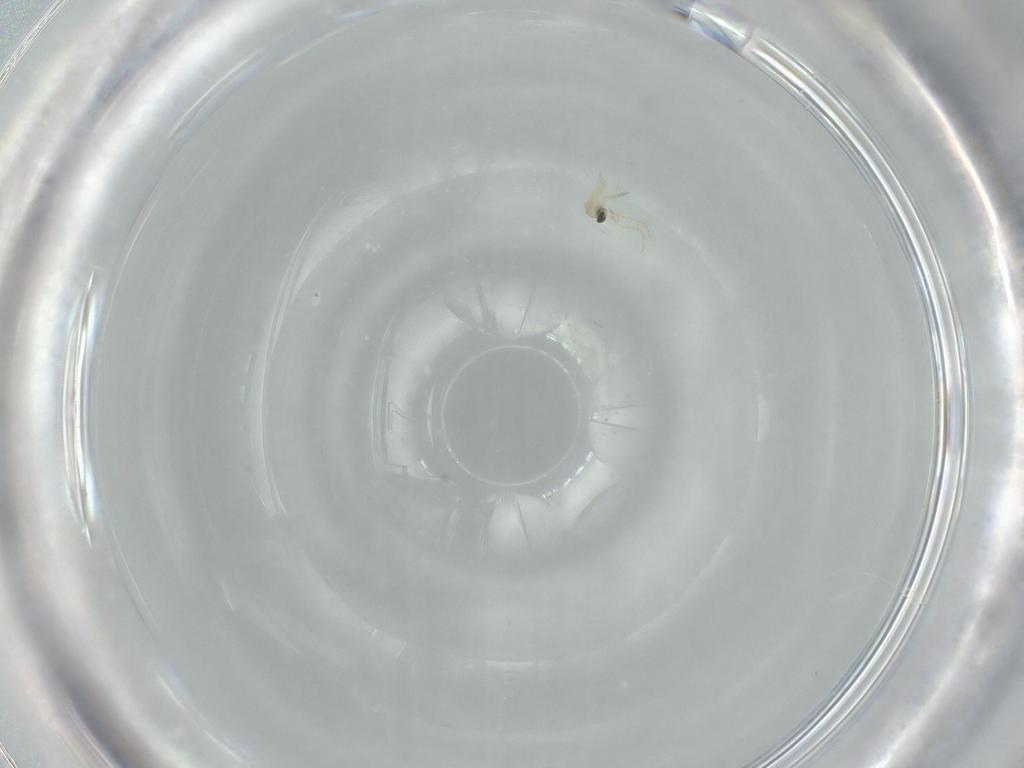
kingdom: Animalia
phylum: Arthropoda
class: Insecta
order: Diptera
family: Cecidomyiidae
